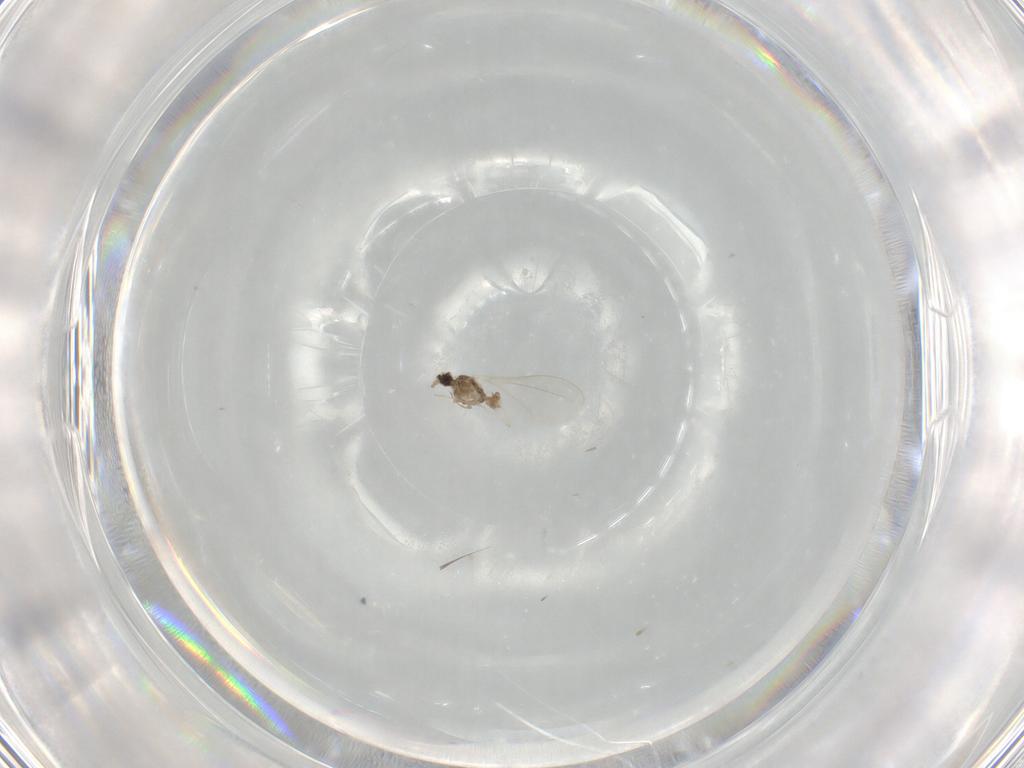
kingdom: Animalia
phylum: Arthropoda
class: Insecta
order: Diptera
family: Cecidomyiidae
